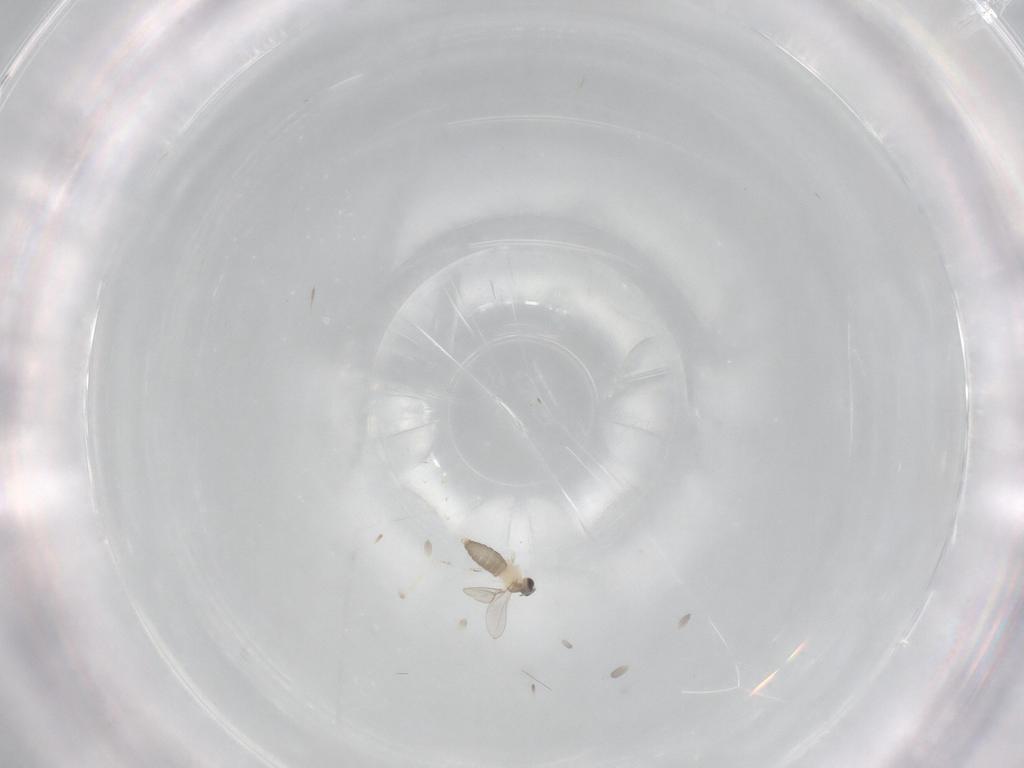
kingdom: Animalia
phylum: Arthropoda
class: Insecta
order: Diptera
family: Cecidomyiidae
